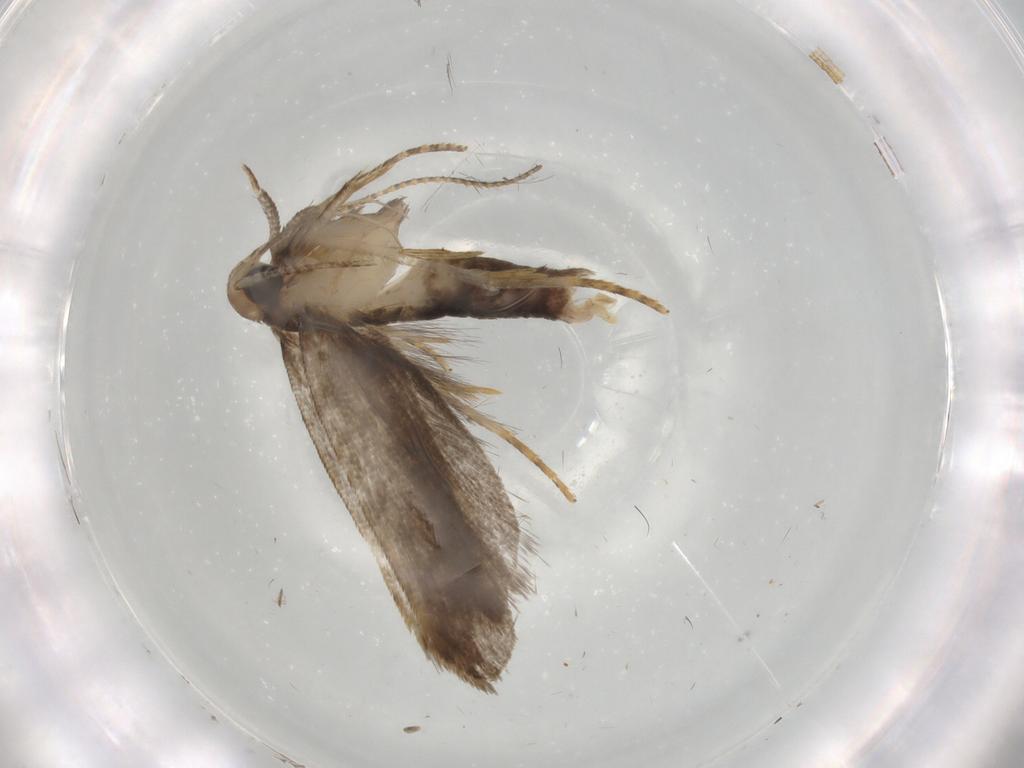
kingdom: Animalia
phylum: Arthropoda
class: Insecta
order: Lepidoptera
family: Gelechiidae
